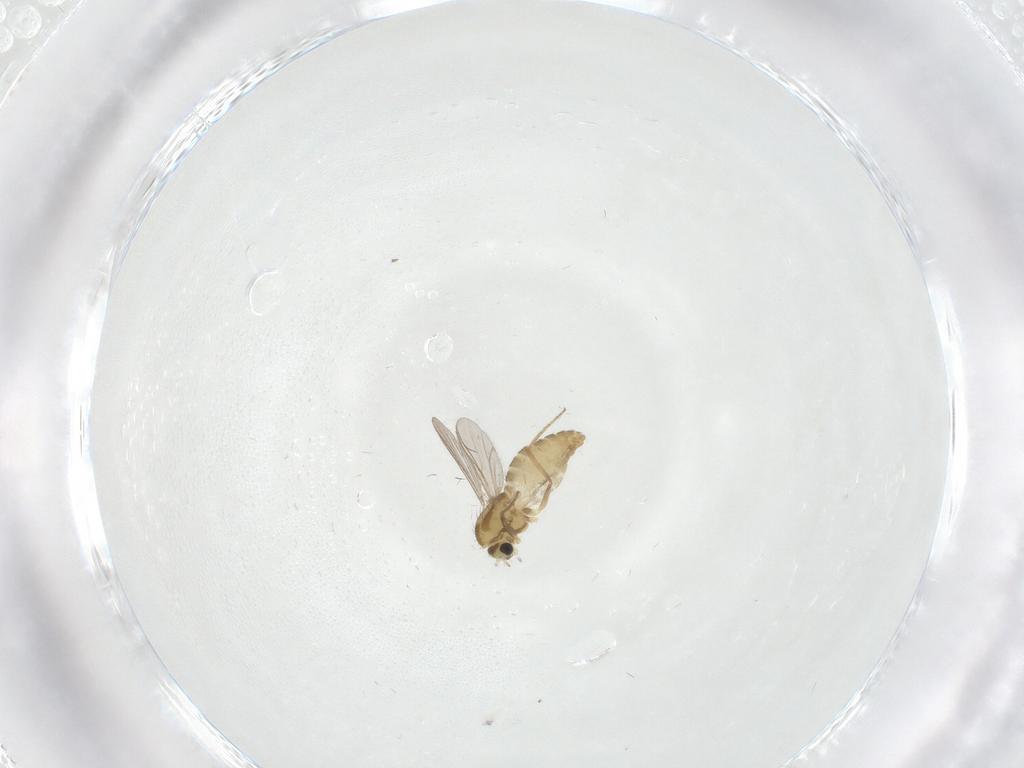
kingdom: Animalia
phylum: Arthropoda
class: Insecta
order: Diptera
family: Chironomidae
